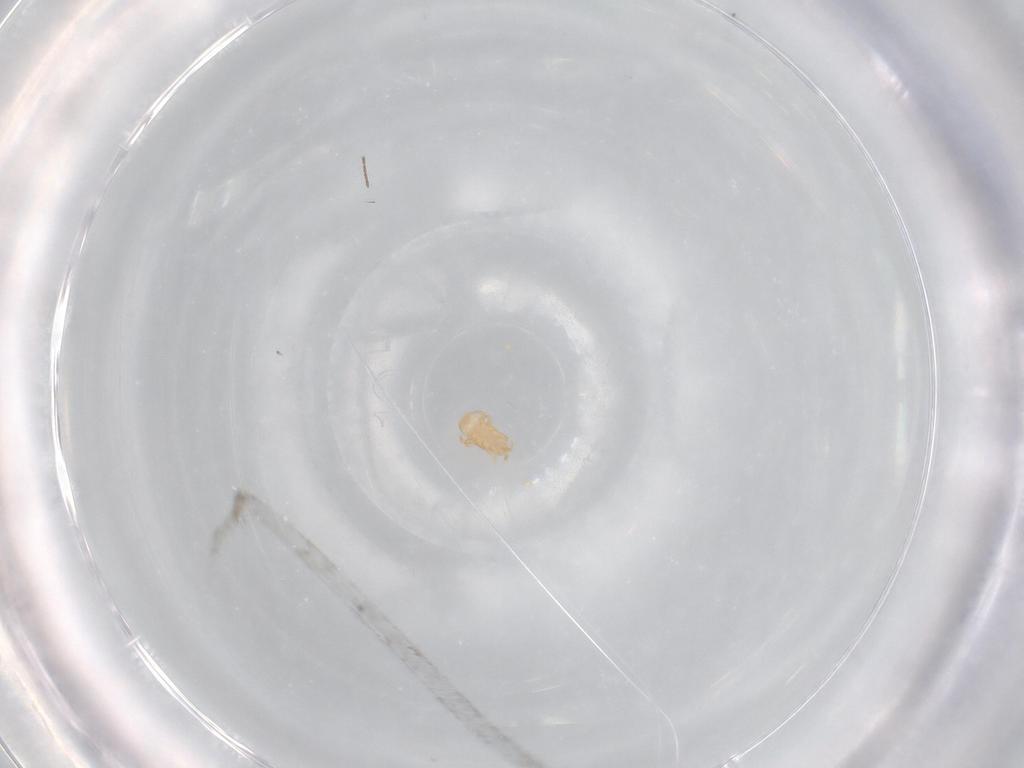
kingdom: Animalia
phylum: Arthropoda
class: Arachnida
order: Mesostigmata
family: Digamasellidae
